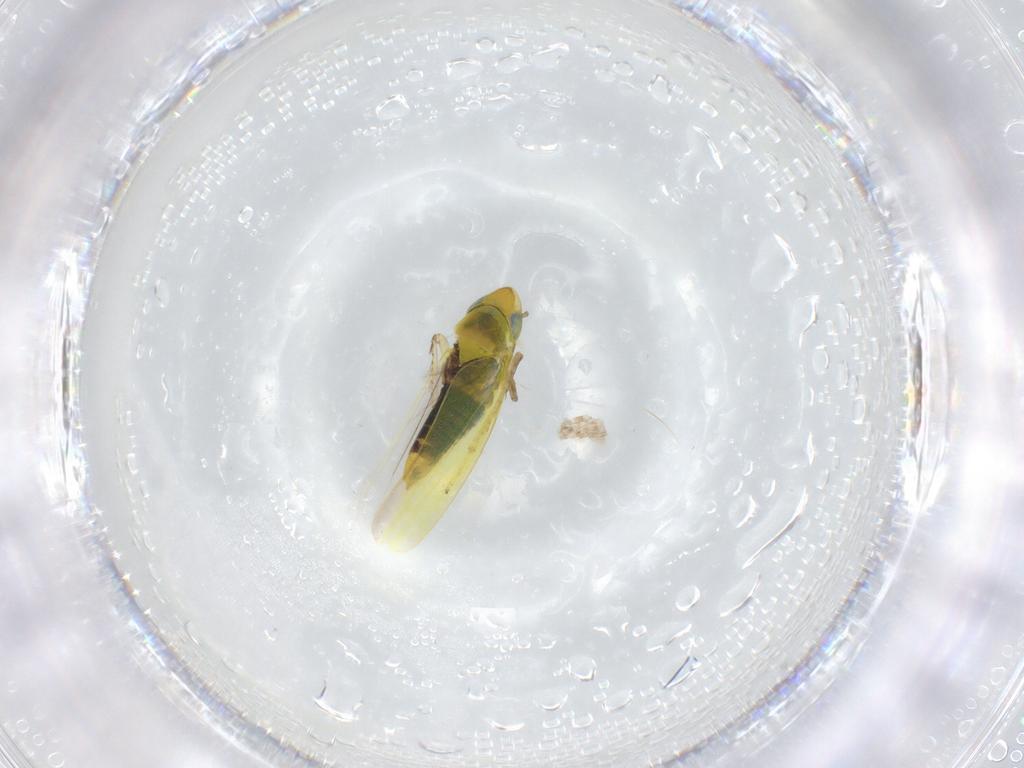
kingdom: Animalia
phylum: Arthropoda
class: Insecta
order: Hemiptera
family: Cicadellidae
